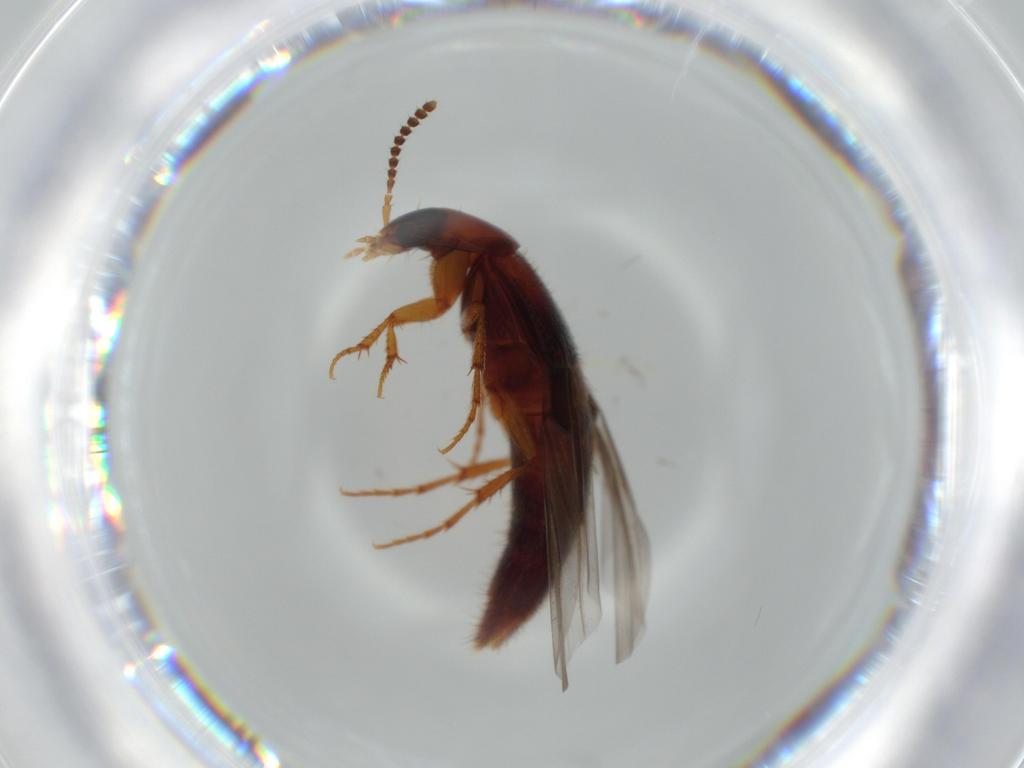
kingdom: Animalia
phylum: Arthropoda
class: Insecta
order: Coleoptera
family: Staphylinidae
